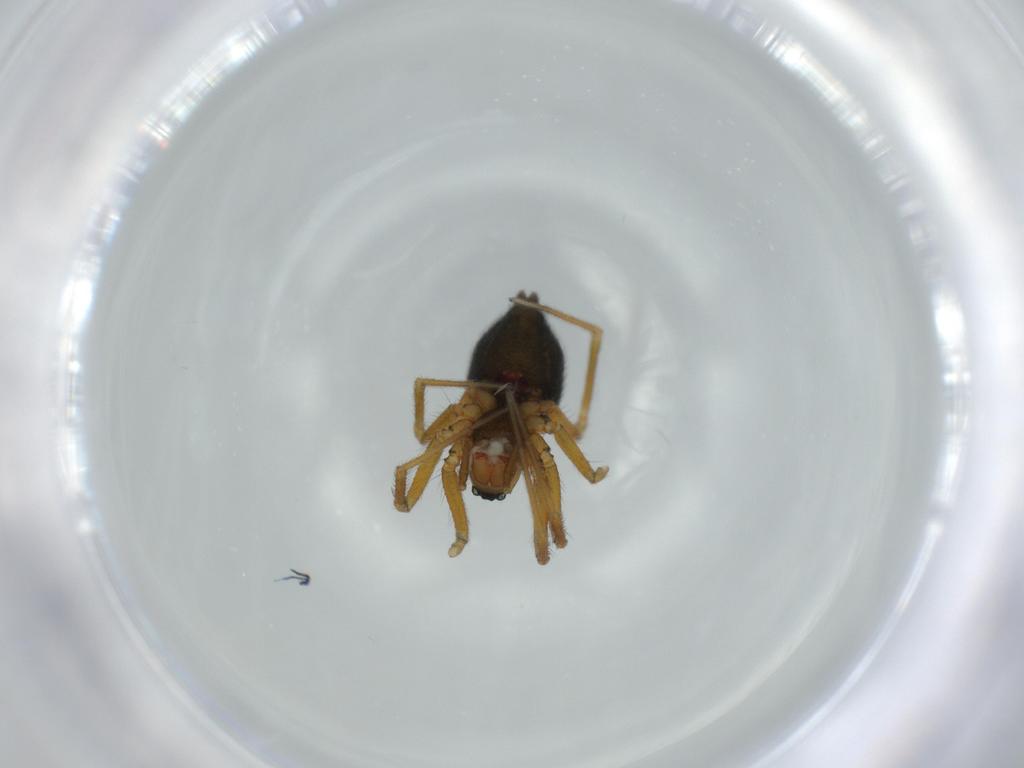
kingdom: Animalia
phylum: Arthropoda
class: Arachnida
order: Araneae
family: Linyphiidae
